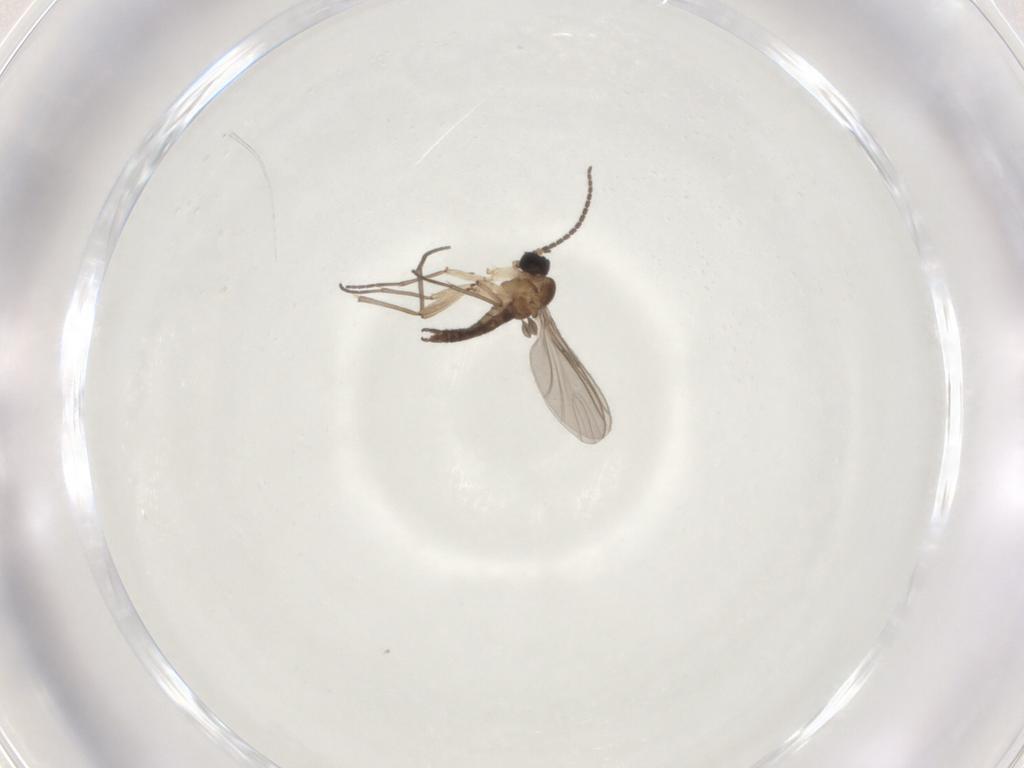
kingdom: Animalia
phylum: Arthropoda
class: Insecta
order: Diptera
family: Sciaridae
